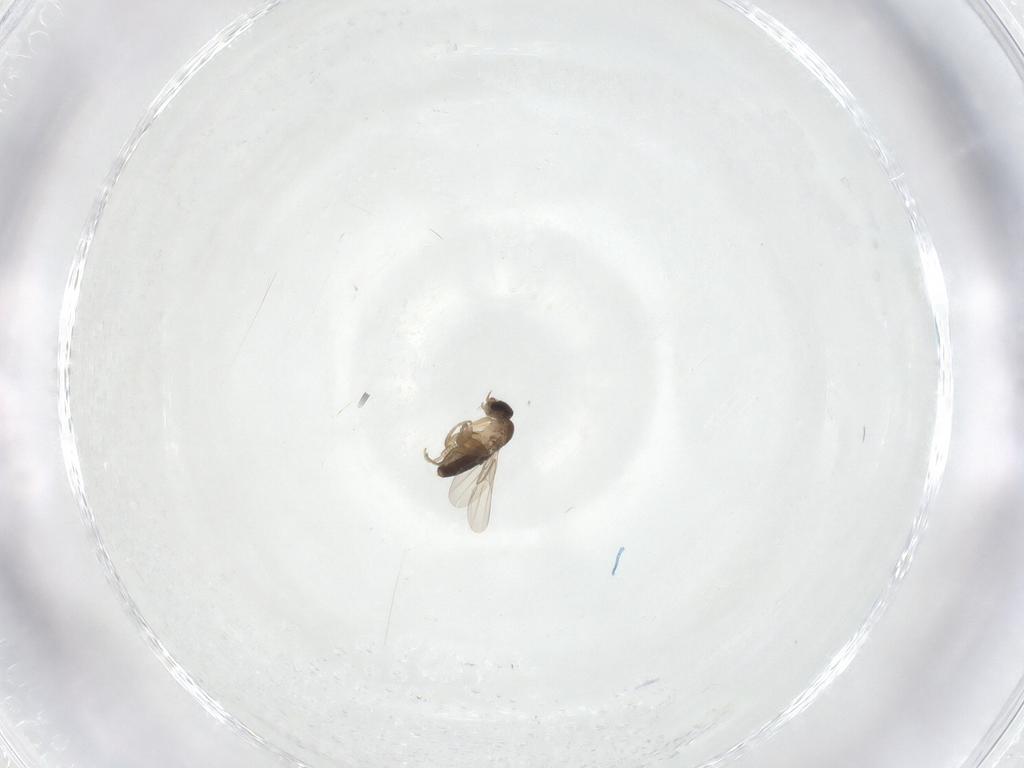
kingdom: Animalia
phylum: Arthropoda
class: Insecta
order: Diptera
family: Phoridae
